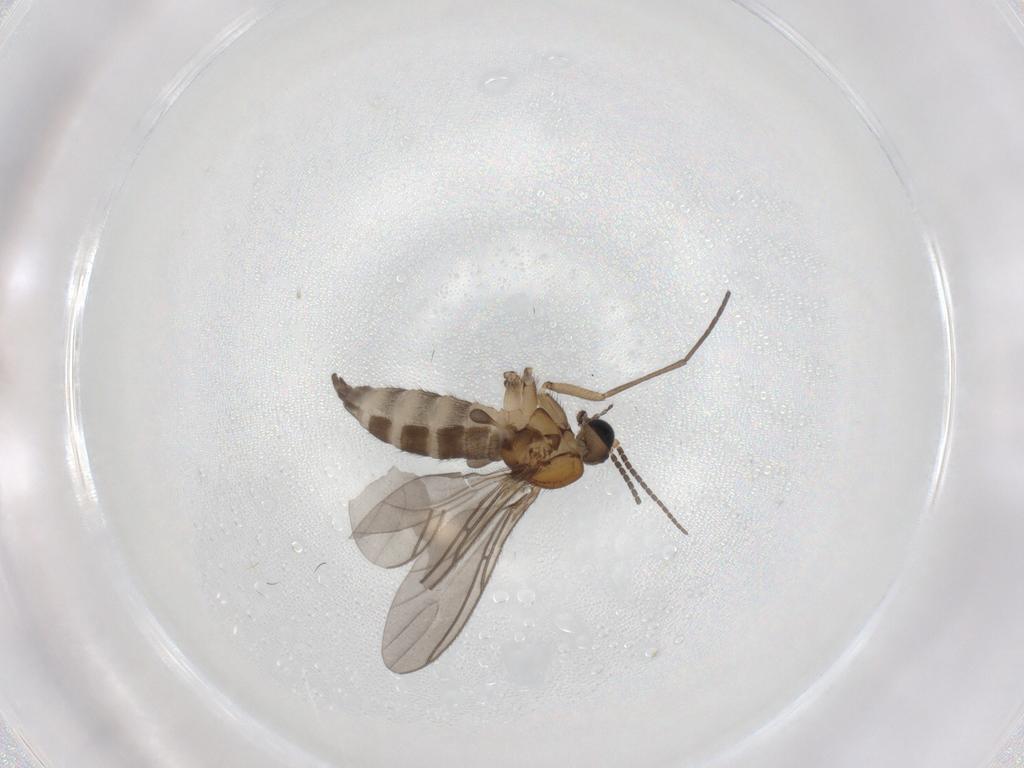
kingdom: Animalia
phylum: Arthropoda
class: Insecta
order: Diptera
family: Sciaridae
